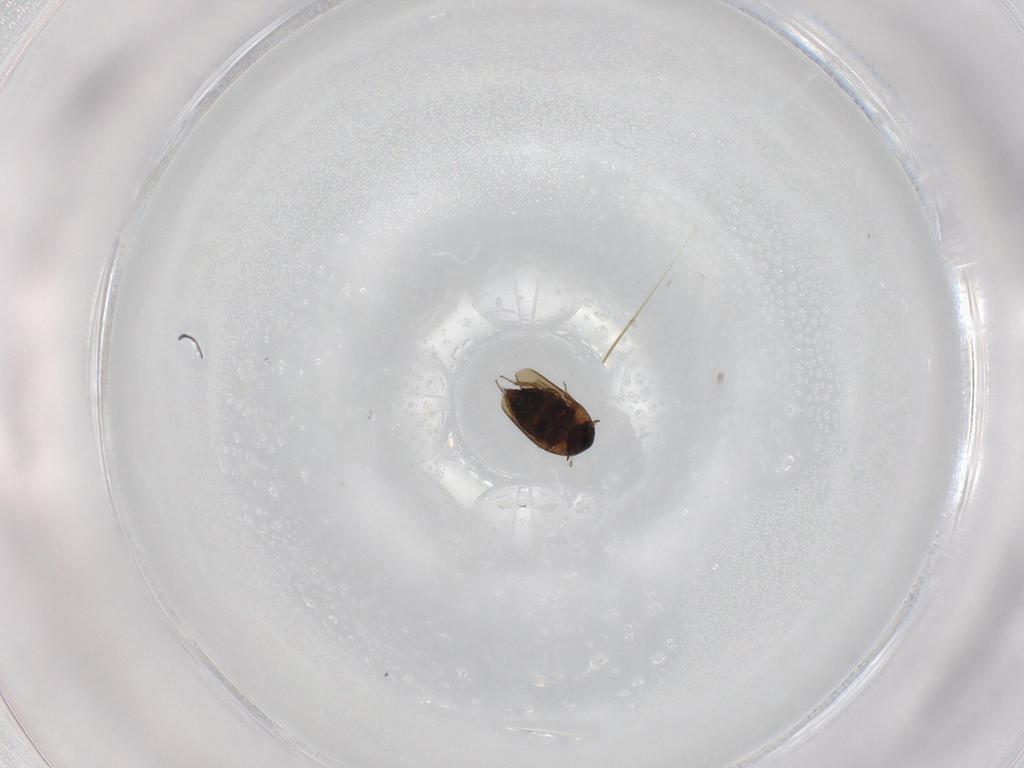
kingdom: Animalia
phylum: Arthropoda
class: Insecta
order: Coleoptera
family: Hydraenidae
